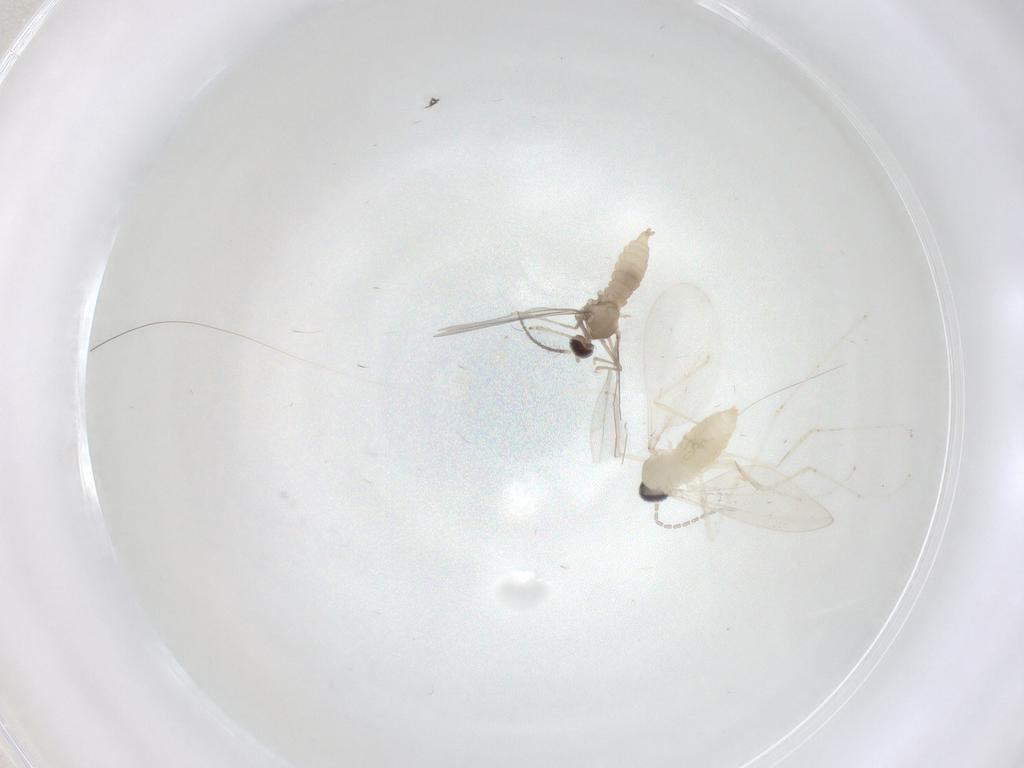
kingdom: Animalia
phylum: Arthropoda
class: Insecta
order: Diptera
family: Cecidomyiidae
